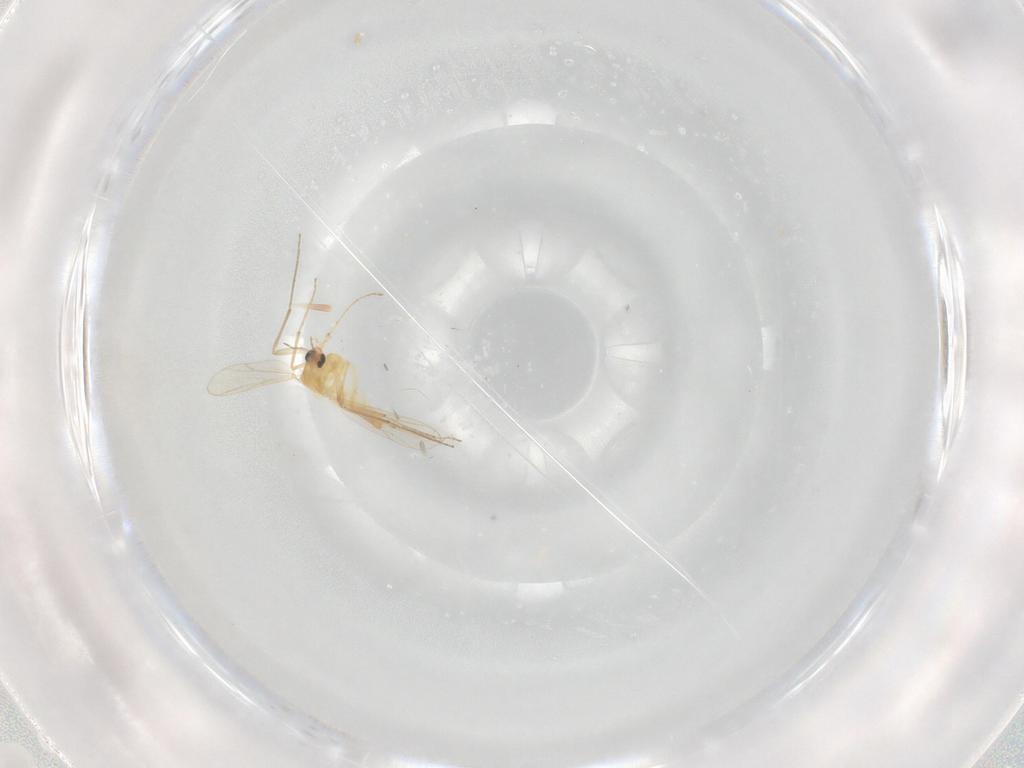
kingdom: Animalia
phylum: Arthropoda
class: Insecta
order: Diptera
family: Chironomidae
